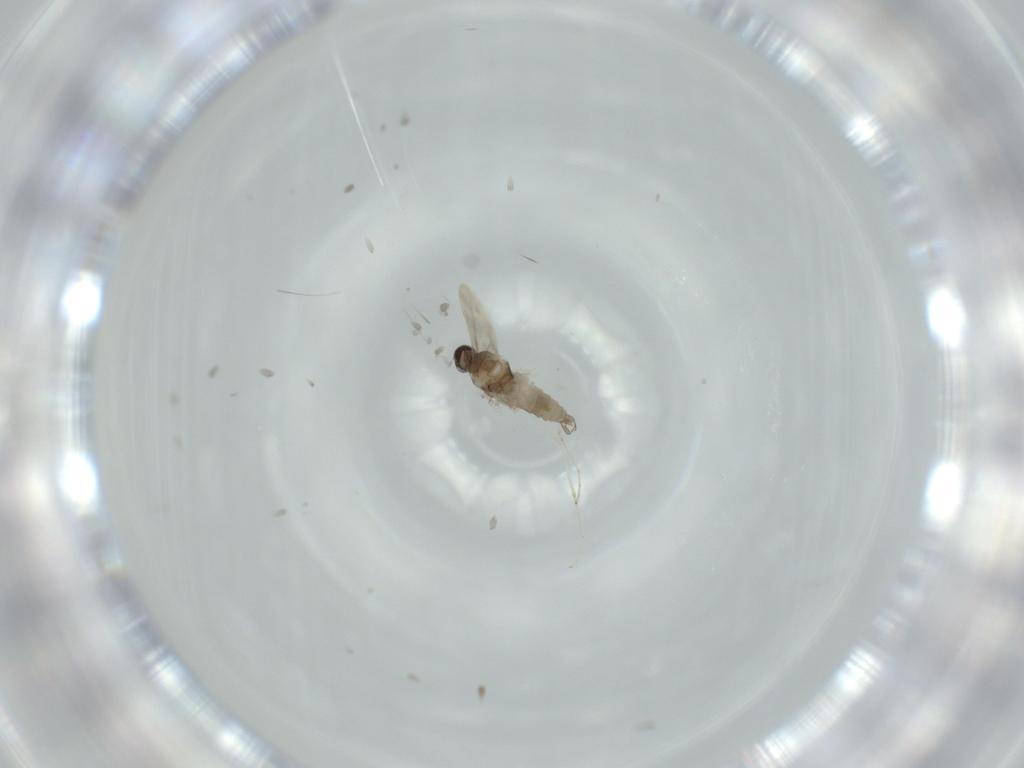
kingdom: Animalia
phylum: Arthropoda
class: Insecta
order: Diptera
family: Cecidomyiidae
